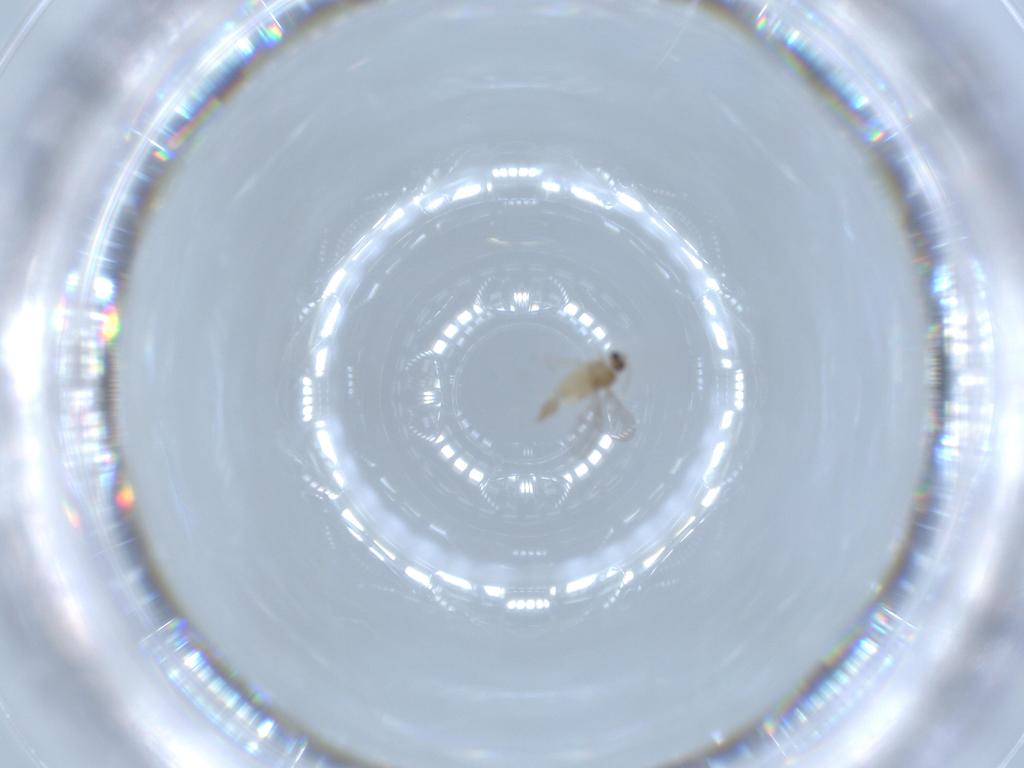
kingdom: Animalia
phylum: Arthropoda
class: Insecta
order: Diptera
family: Cecidomyiidae
